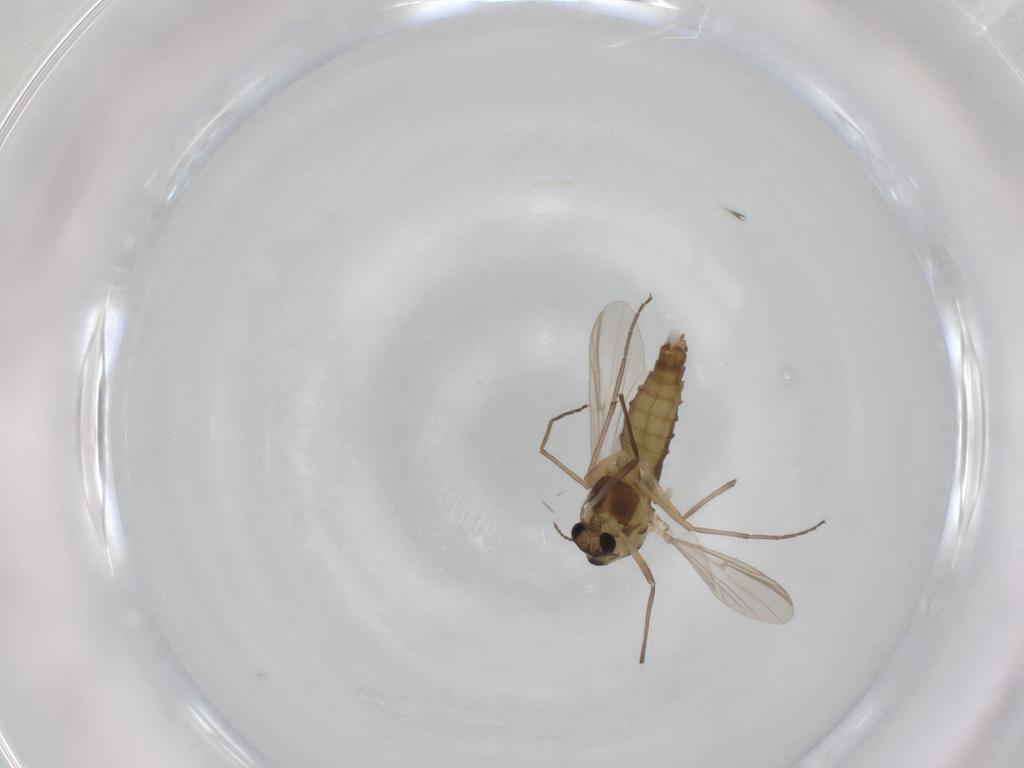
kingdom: Animalia
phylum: Arthropoda
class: Insecta
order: Diptera
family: Chironomidae
